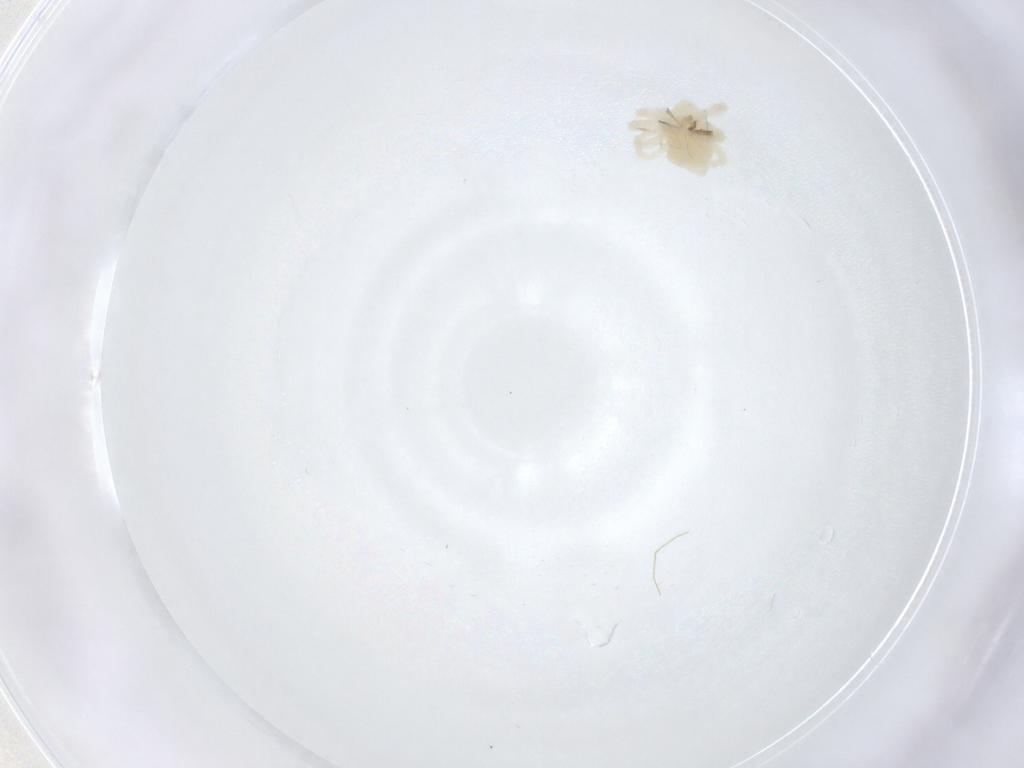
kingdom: Animalia
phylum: Arthropoda
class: Arachnida
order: Trombidiformes
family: Anystidae
